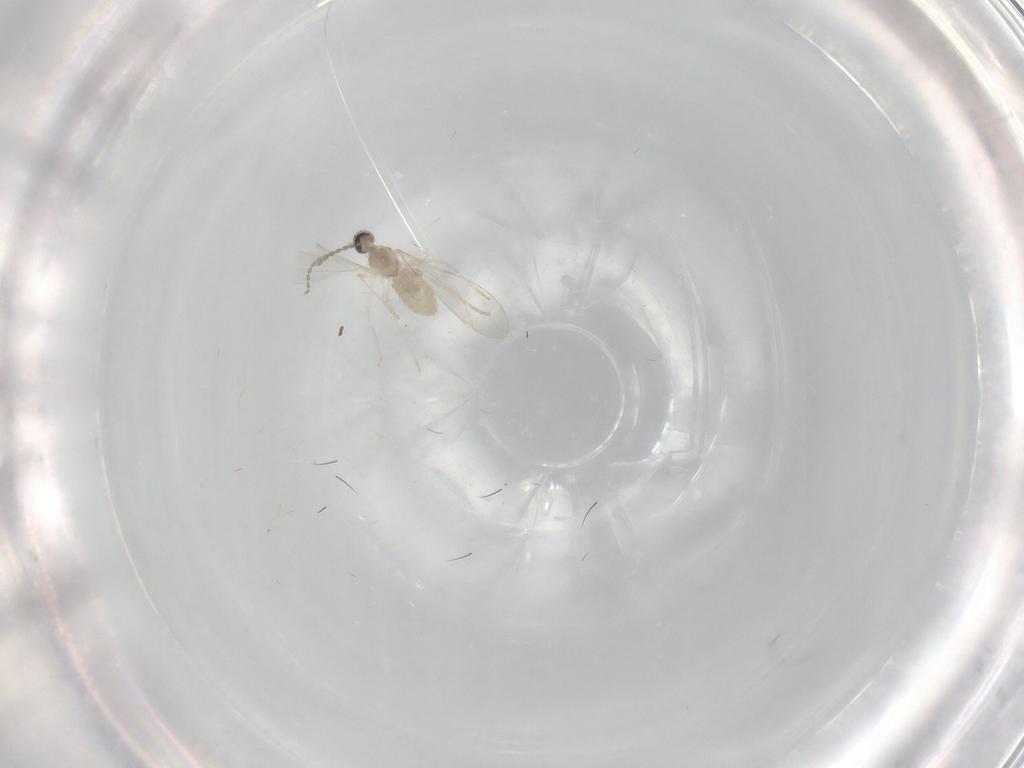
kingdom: Animalia
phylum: Arthropoda
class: Insecta
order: Diptera
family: Cecidomyiidae
